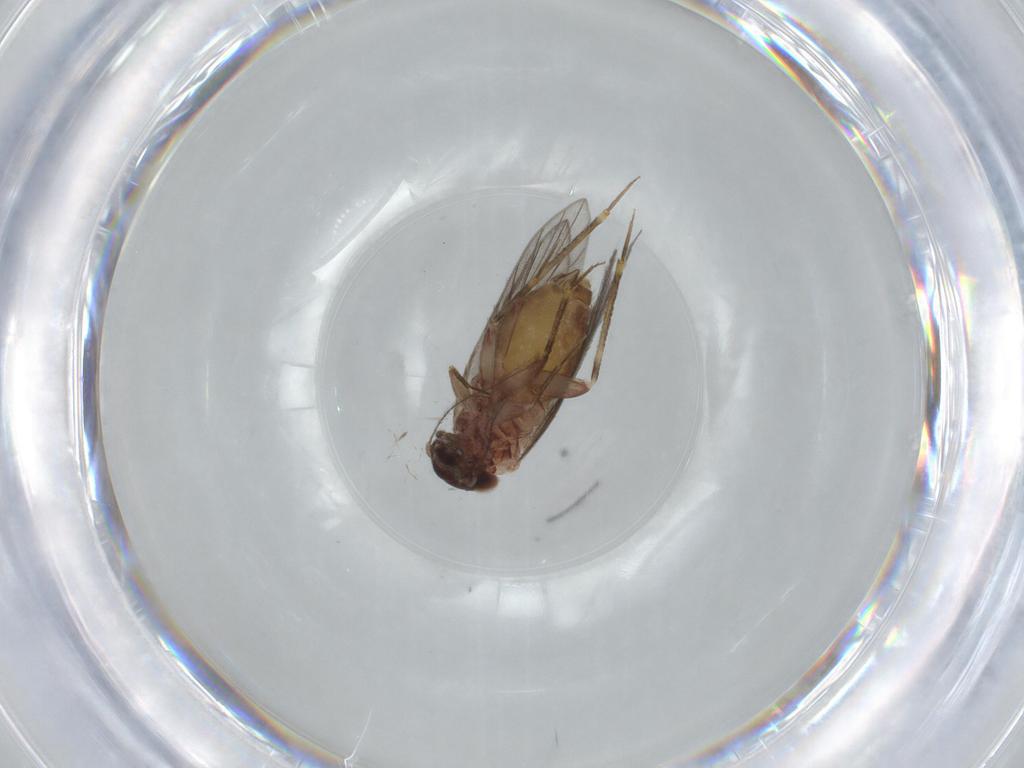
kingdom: Animalia
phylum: Arthropoda
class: Insecta
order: Psocodea
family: Lepidopsocidae
